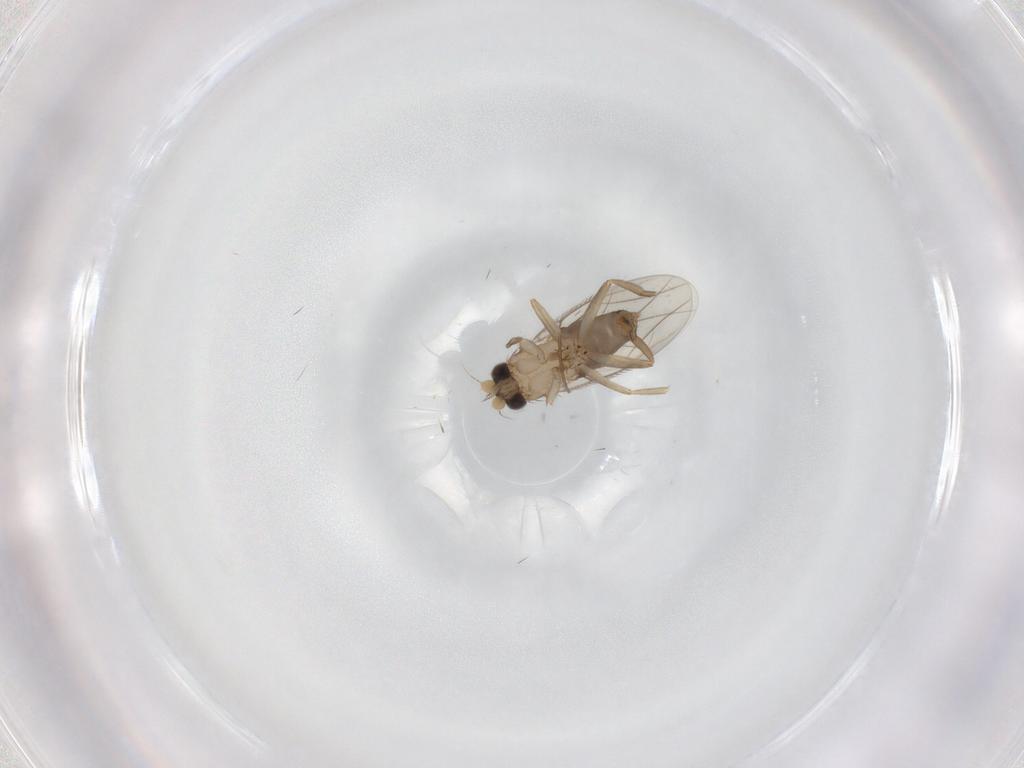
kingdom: Animalia
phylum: Arthropoda
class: Insecta
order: Diptera
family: Phoridae
